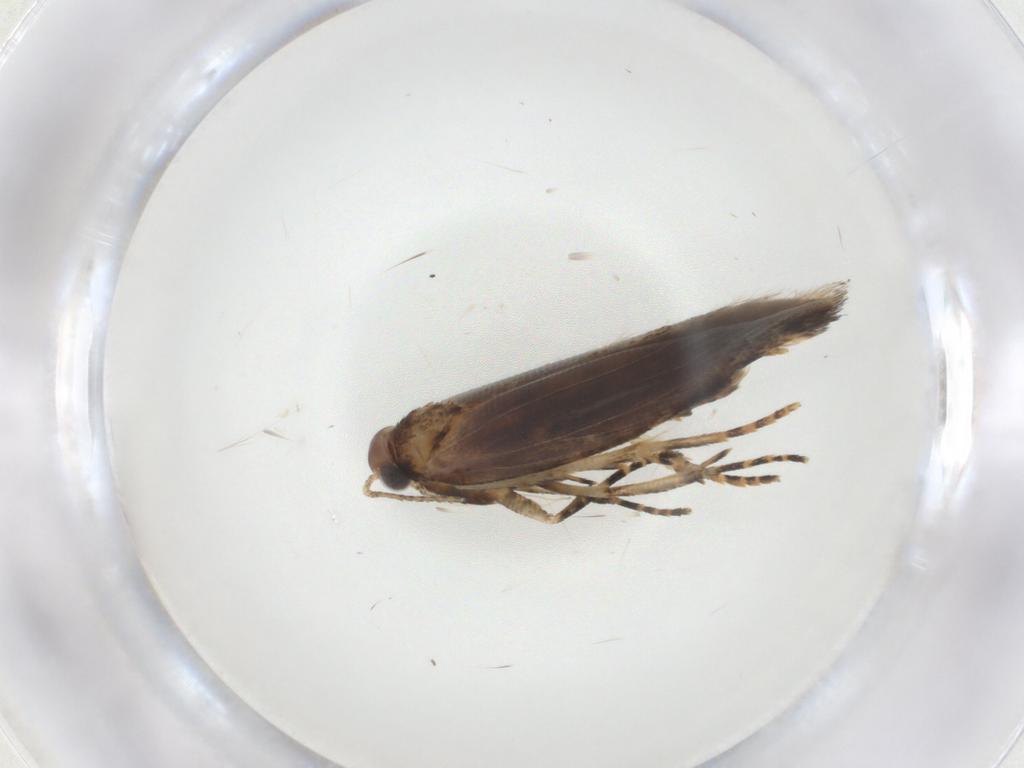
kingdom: Animalia
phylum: Arthropoda
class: Insecta
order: Lepidoptera
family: Gelechiidae
